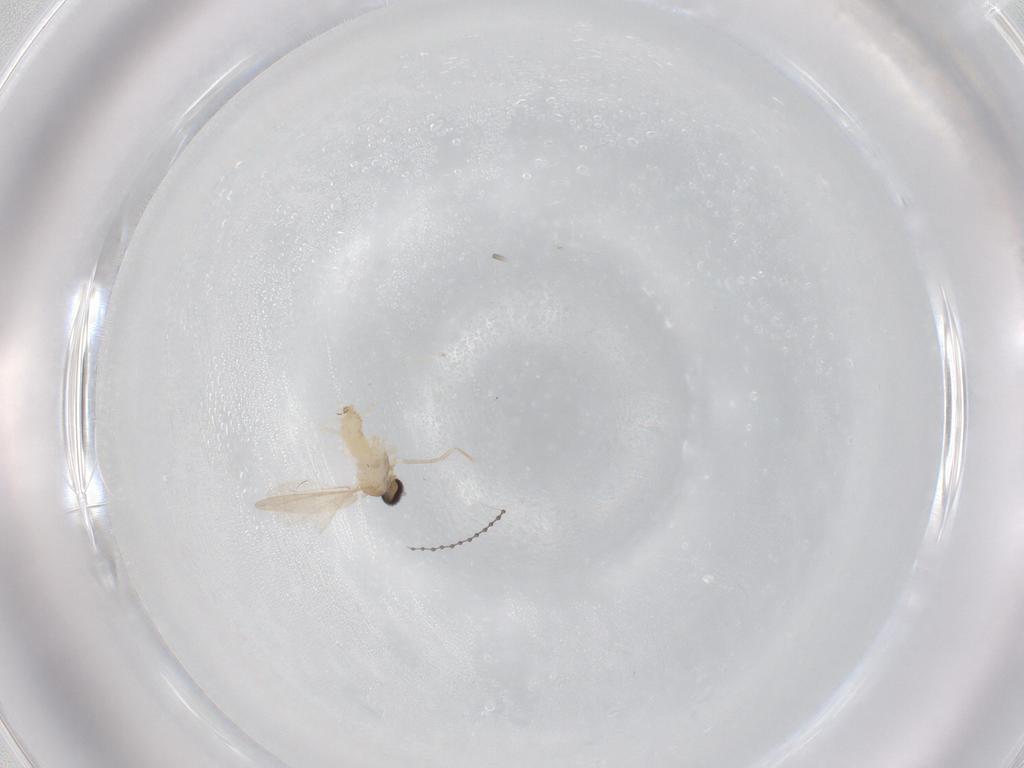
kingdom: Animalia
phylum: Arthropoda
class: Insecta
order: Diptera
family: Cecidomyiidae
